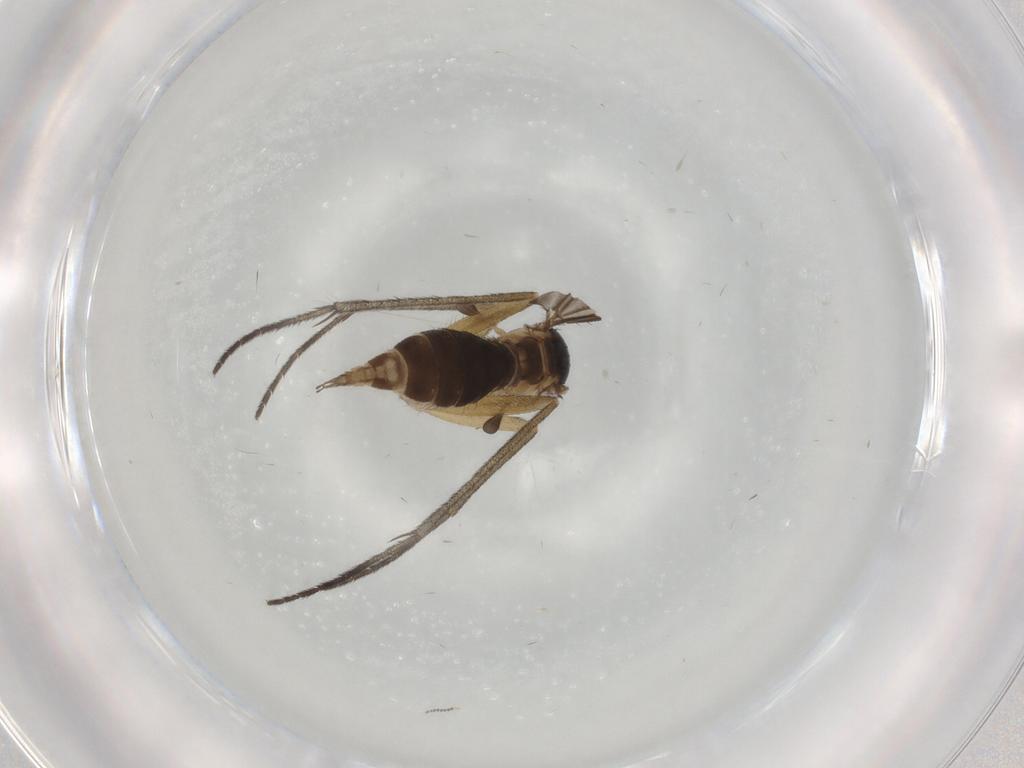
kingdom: Animalia
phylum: Arthropoda
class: Insecta
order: Diptera
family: Sciaridae
